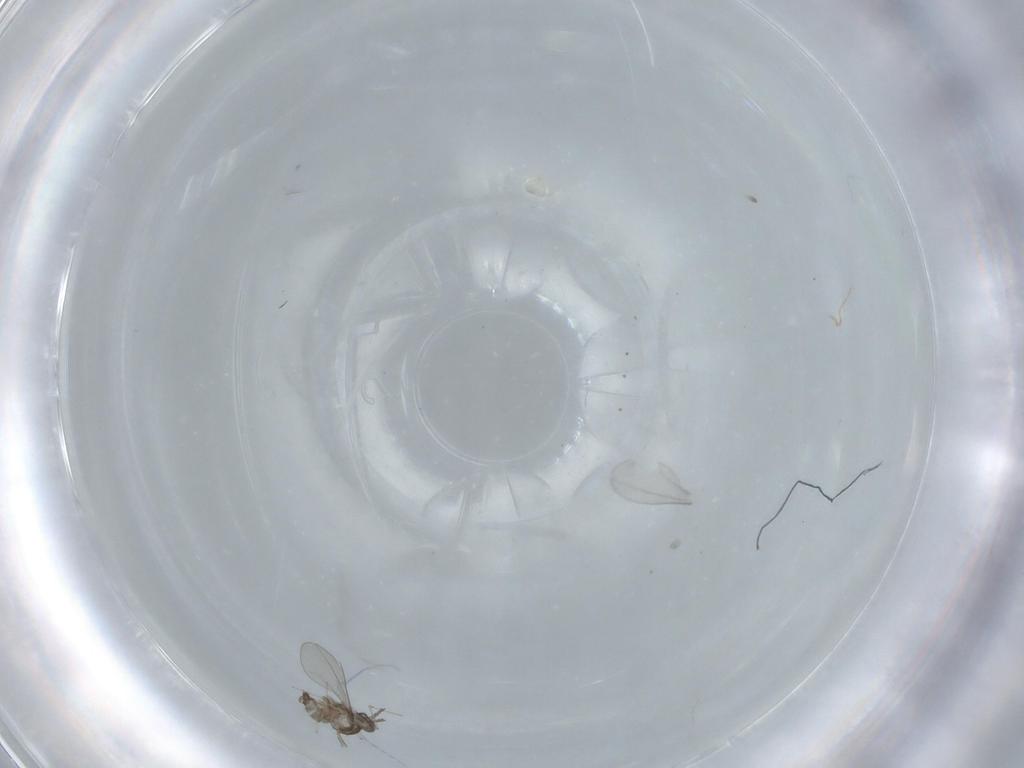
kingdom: Animalia
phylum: Arthropoda
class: Insecta
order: Diptera
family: Cecidomyiidae
